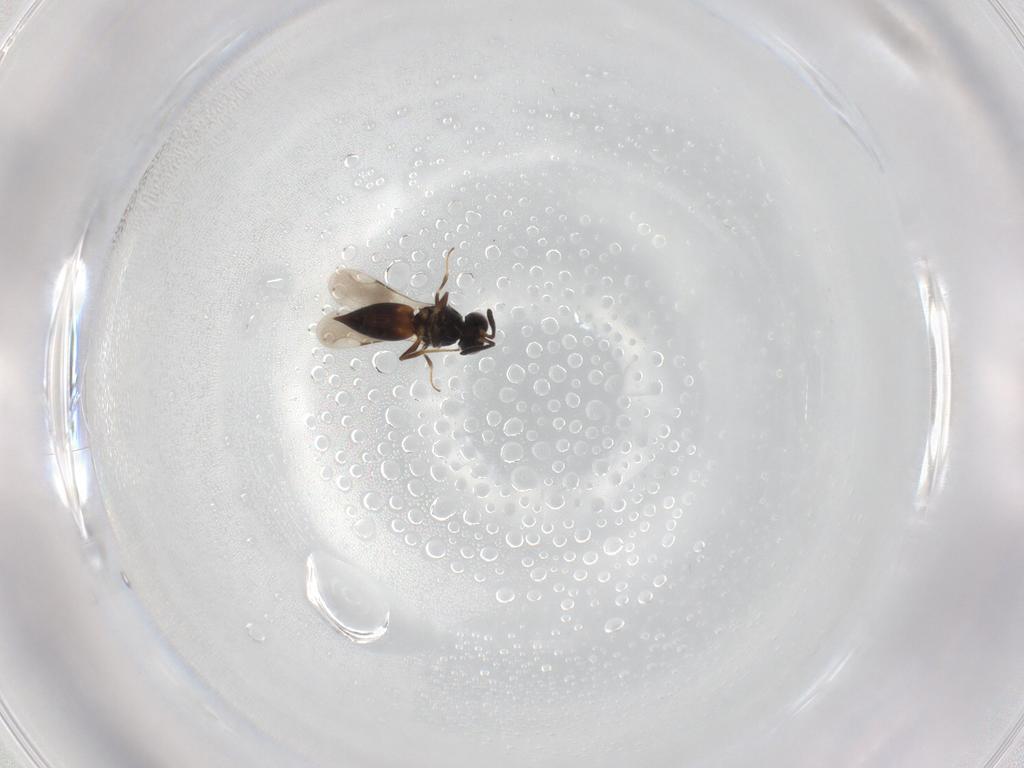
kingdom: Animalia
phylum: Arthropoda
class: Insecta
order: Hymenoptera
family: Ceraphronidae
